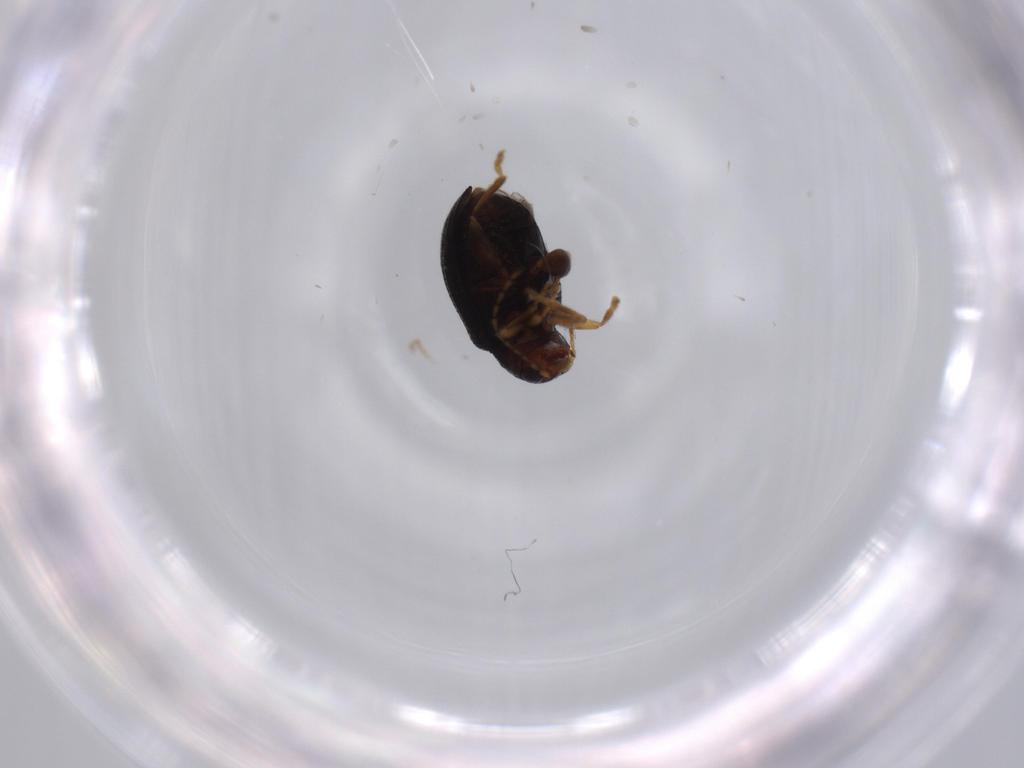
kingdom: Animalia
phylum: Arthropoda
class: Insecta
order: Coleoptera
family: Chrysomelidae
